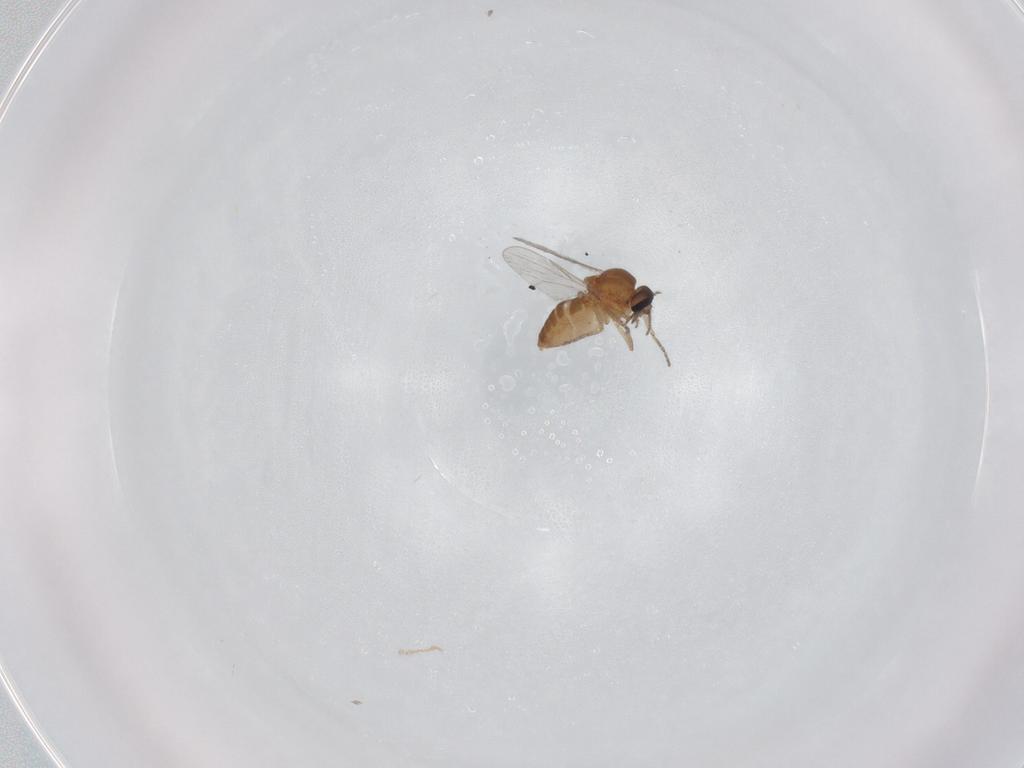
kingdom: Animalia
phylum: Arthropoda
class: Insecta
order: Diptera
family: Ceratopogonidae
